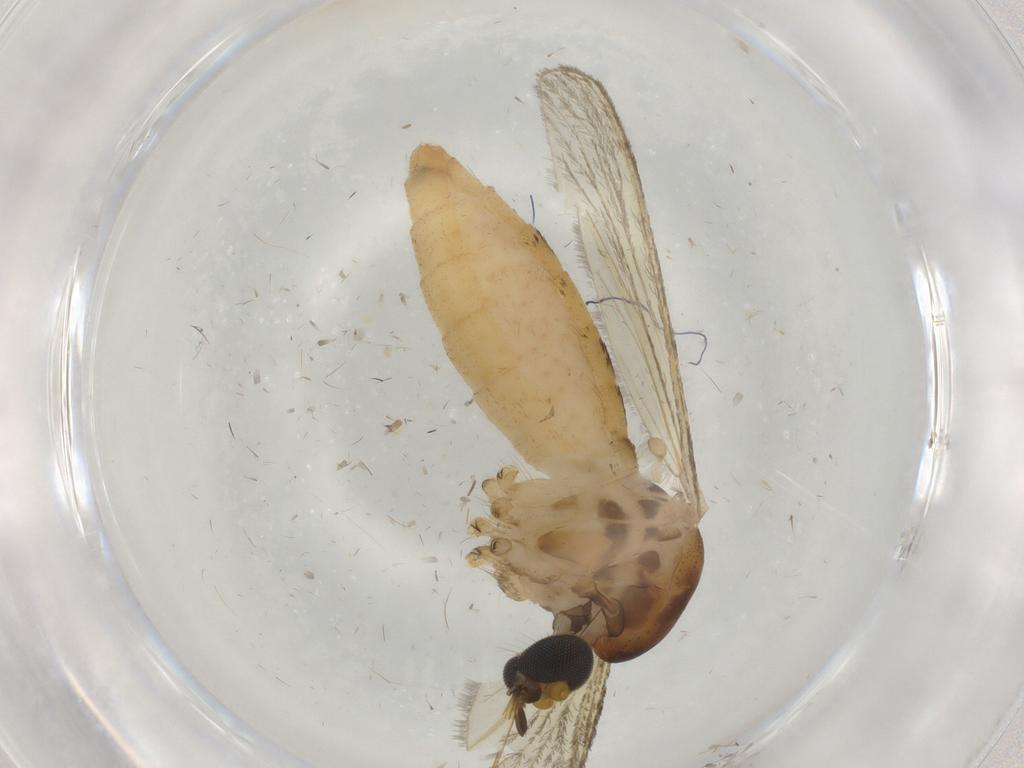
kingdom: Animalia
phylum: Arthropoda
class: Insecta
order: Diptera
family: Culicidae
